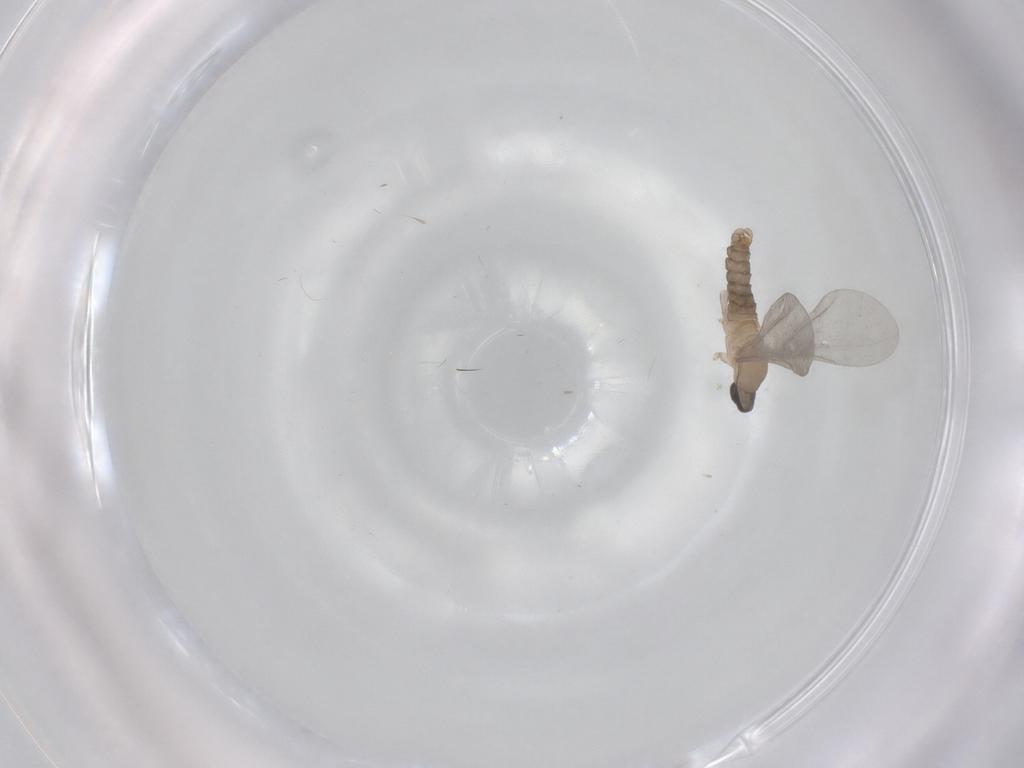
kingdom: Animalia
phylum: Arthropoda
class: Insecta
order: Diptera
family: Cecidomyiidae
